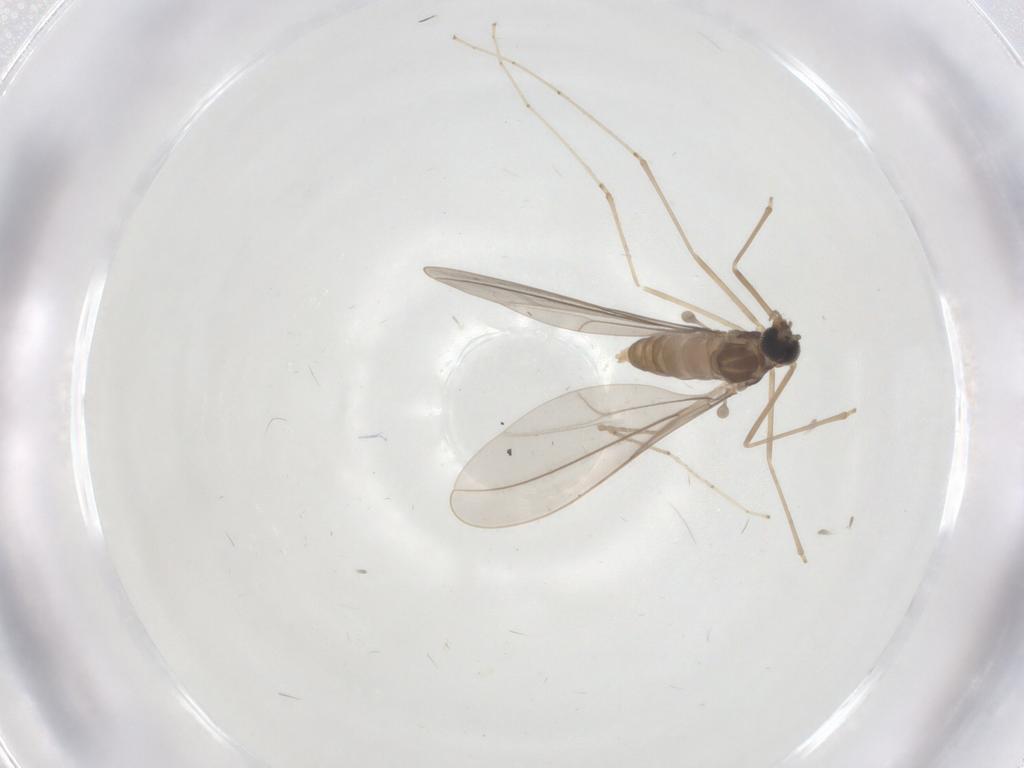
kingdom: Animalia
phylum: Arthropoda
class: Insecta
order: Diptera
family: Cecidomyiidae
